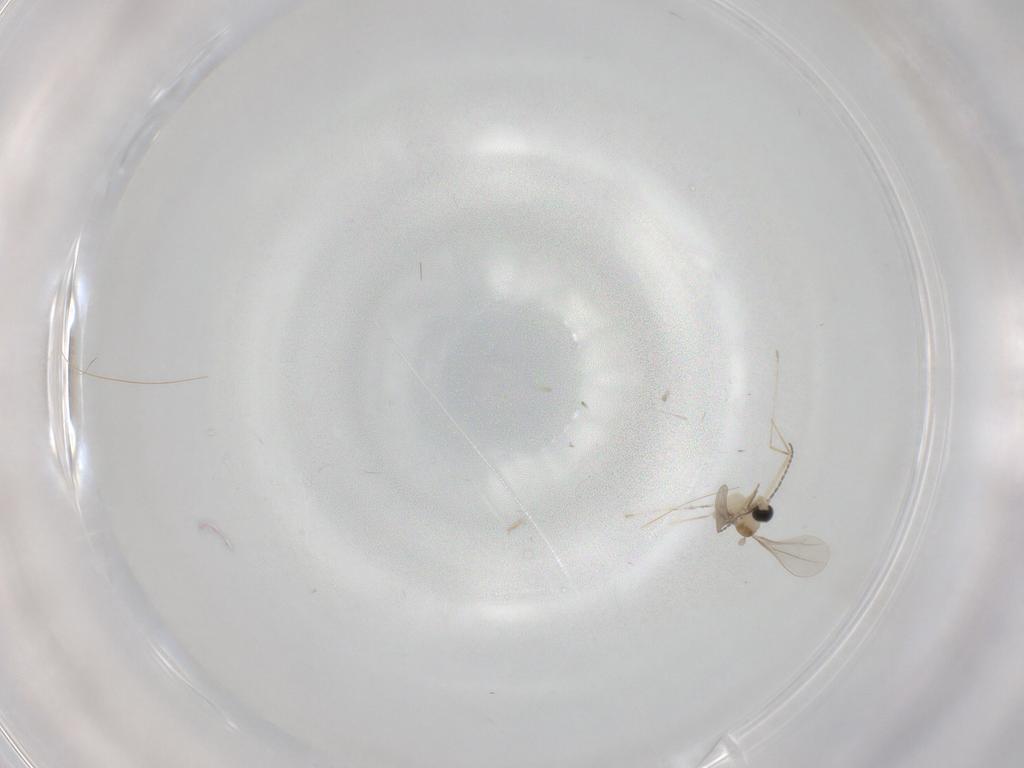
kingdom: Animalia
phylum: Arthropoda
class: Insecta
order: Diptera
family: Cecidomyiidae
